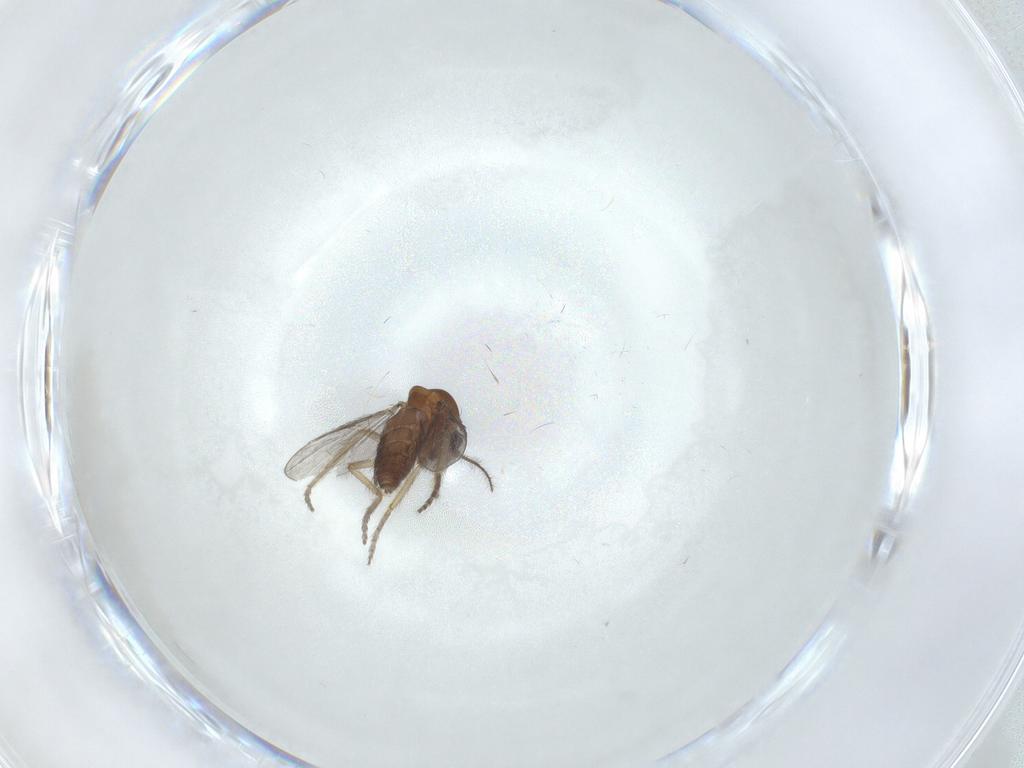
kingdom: Animalia
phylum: Arthropoda
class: Insecta
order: Diptera
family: Ceratopogonidae
